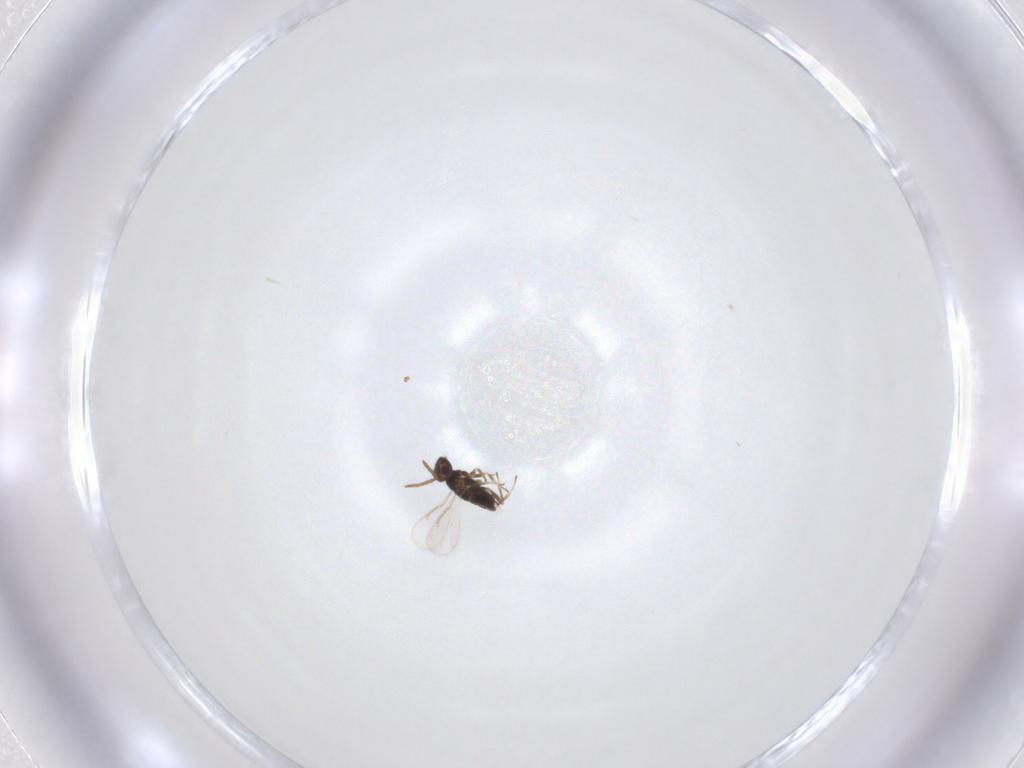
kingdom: Animalia
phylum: Arthropoda
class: Insecta
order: Hymenoptera
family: Aphelinidae
